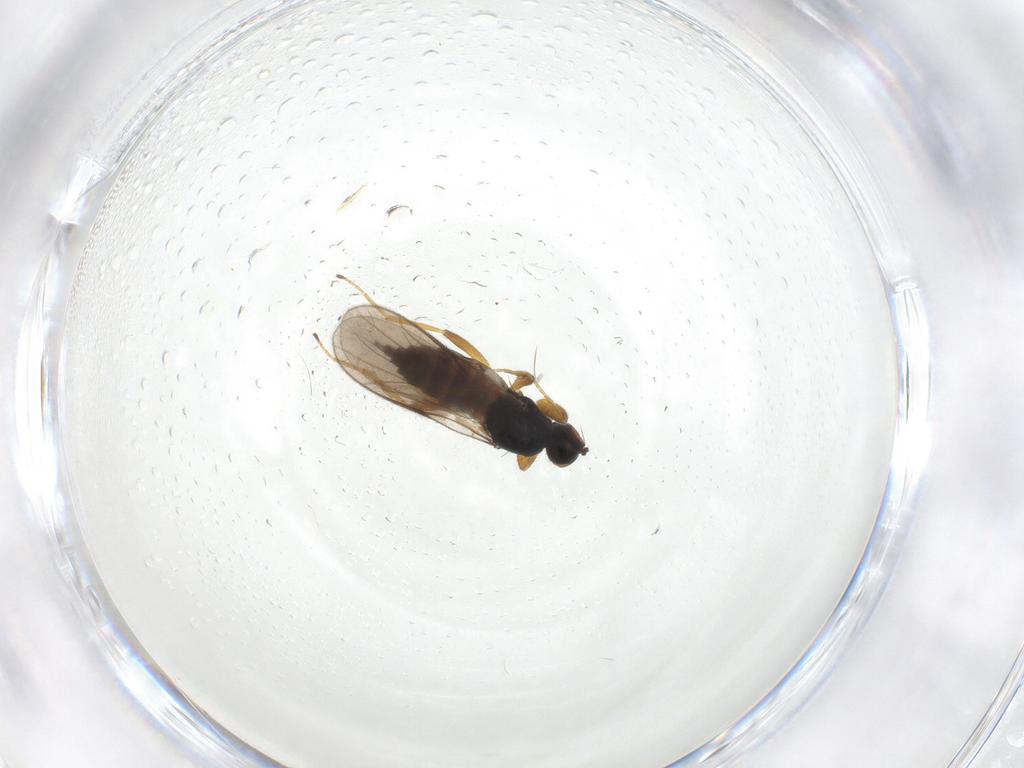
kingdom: Animalia
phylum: Arthropoda
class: Insecta
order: Diptera
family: Hybotidae
